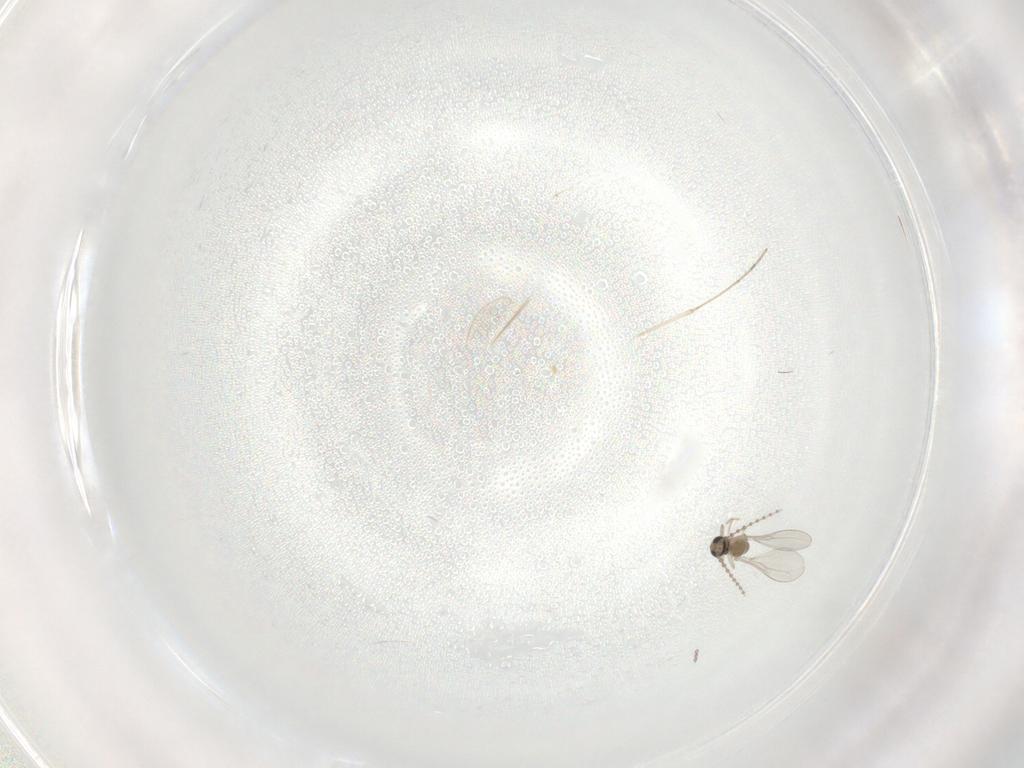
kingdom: Animalia
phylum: Arthropoda
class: Insecta
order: Diptera
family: Cecidomyiidae
